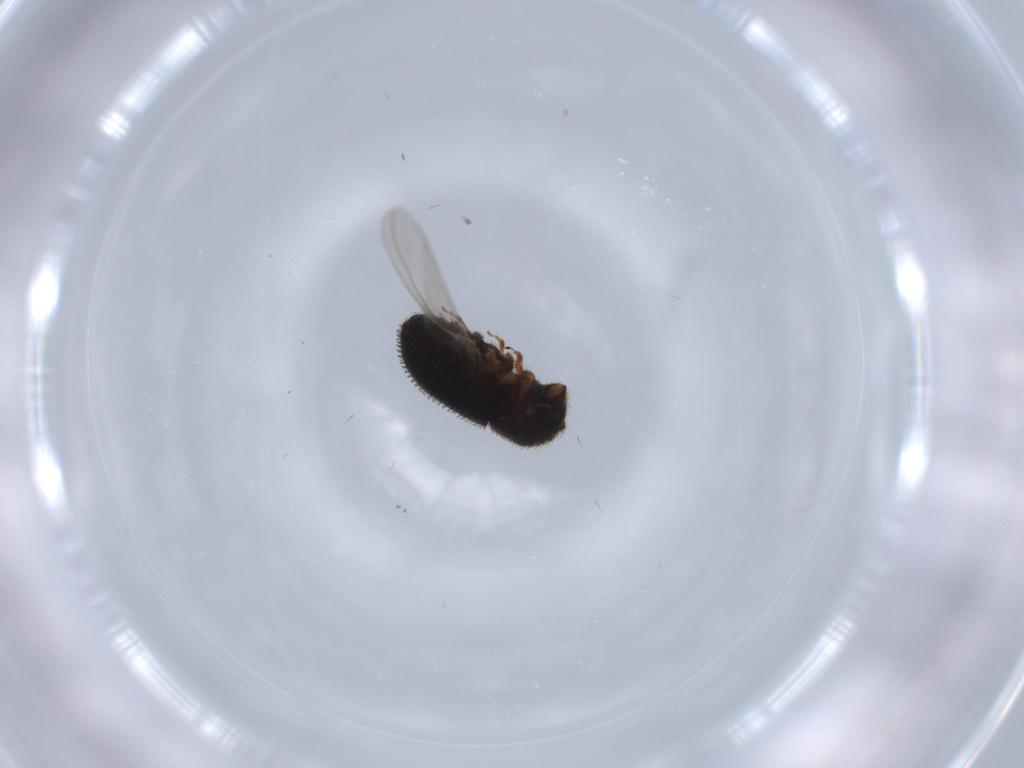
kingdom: Animalia
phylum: Arthropoda
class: Insecta
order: Coleoptera
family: Curculionidae
